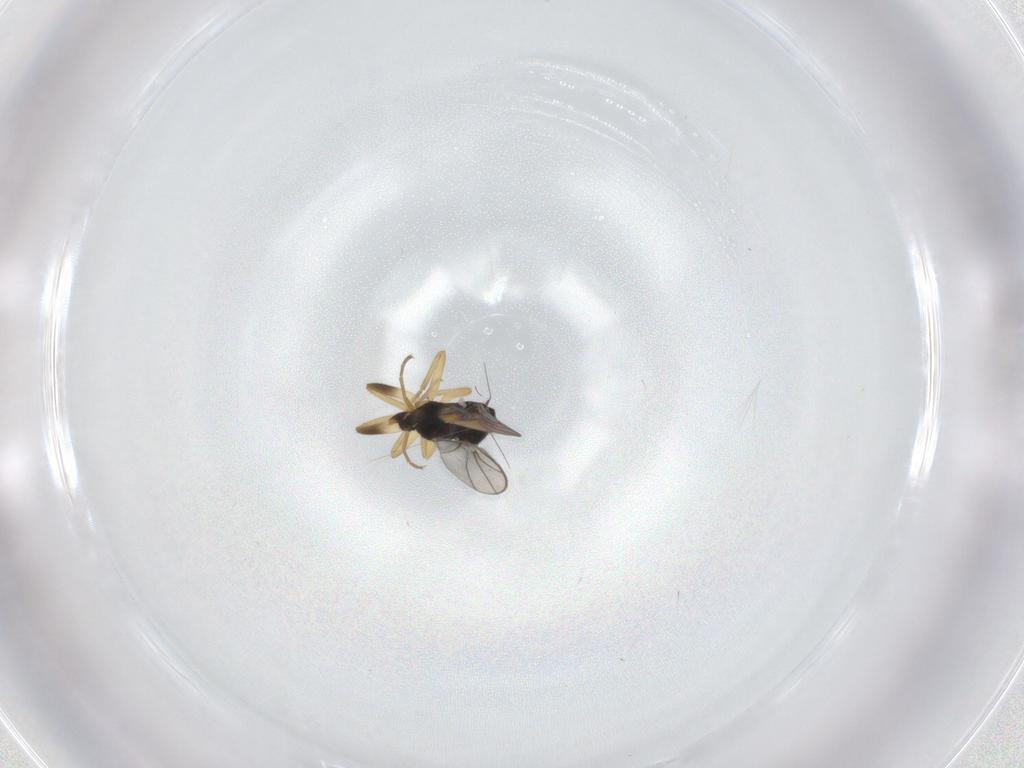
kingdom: Animalia
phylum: Arthropoda
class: Insecta
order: Diptera
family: Hybotidae
